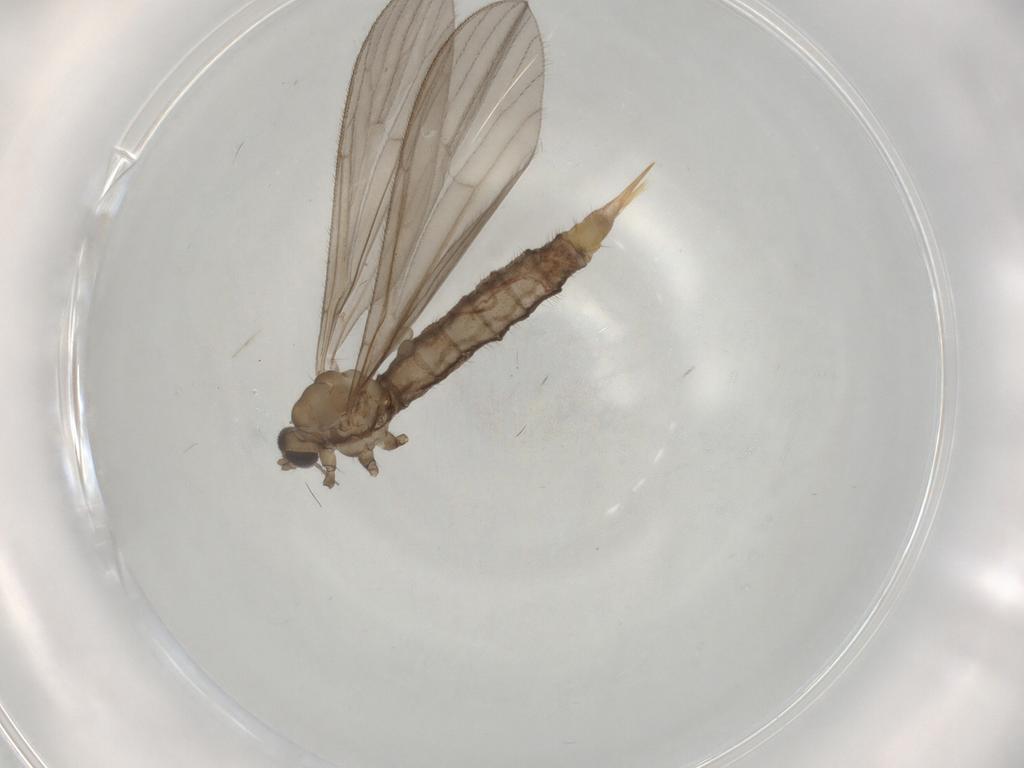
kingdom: Animalia
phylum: Arthropoda
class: Insecta
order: Diptera
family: Limoniidae
